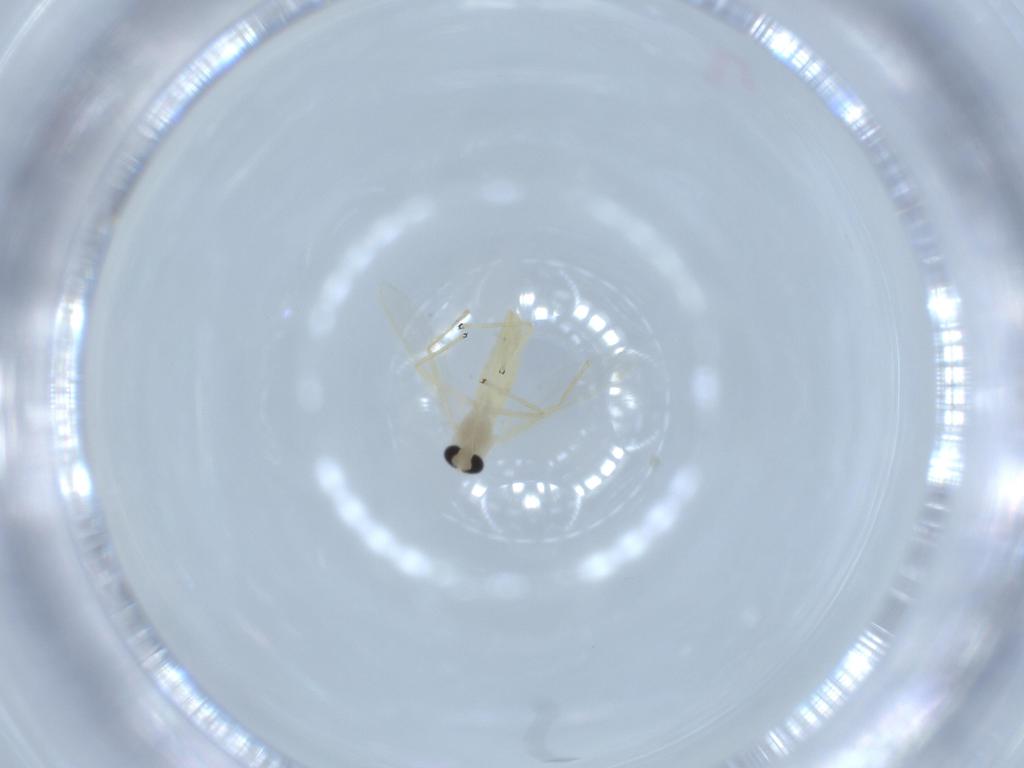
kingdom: Animalia
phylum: Arthropoda
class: Insecta
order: Diptera
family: Chironomidae
